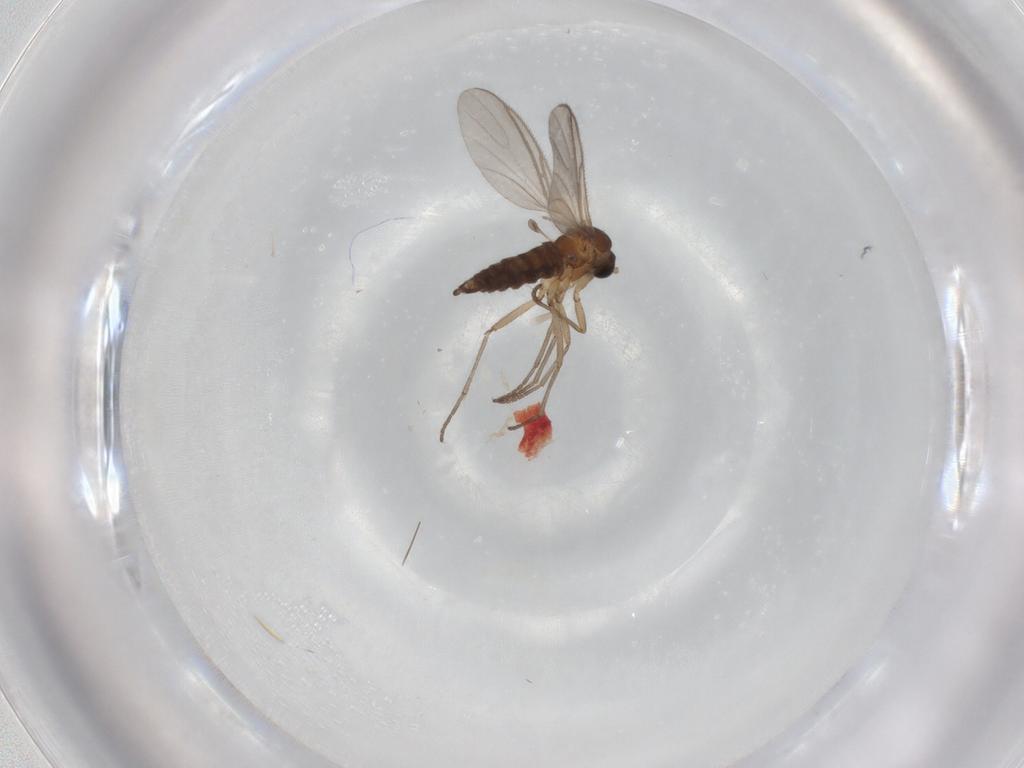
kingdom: Animalia
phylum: Arthropoda
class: Insecta
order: Diptera
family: Sciaridae
